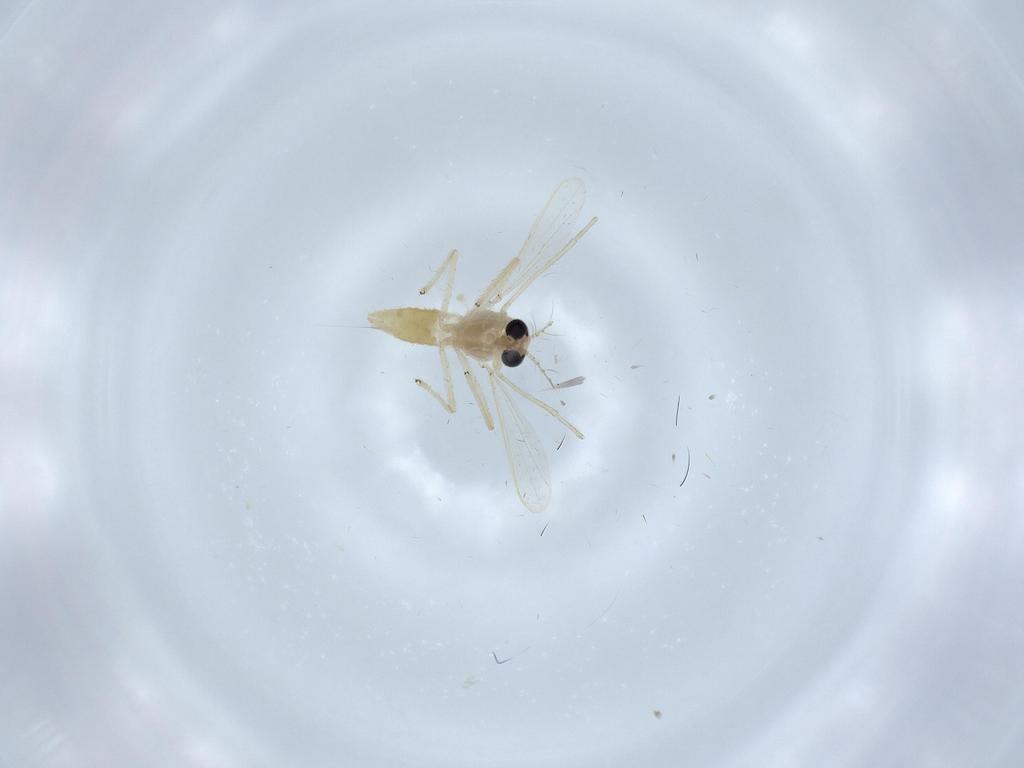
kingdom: Animalia
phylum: Arthropoda
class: Insecta
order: Diptera
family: Chironomidae
